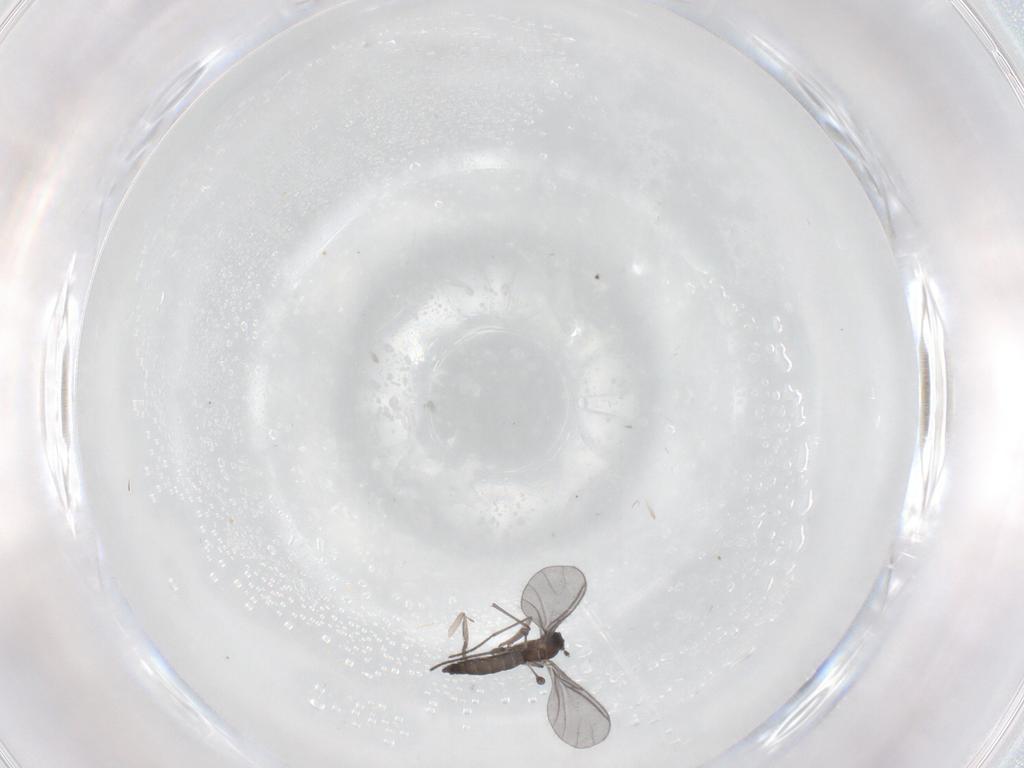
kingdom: Animalia
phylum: Arthropoda
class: Insecta
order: Diptera
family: Psychodidae
